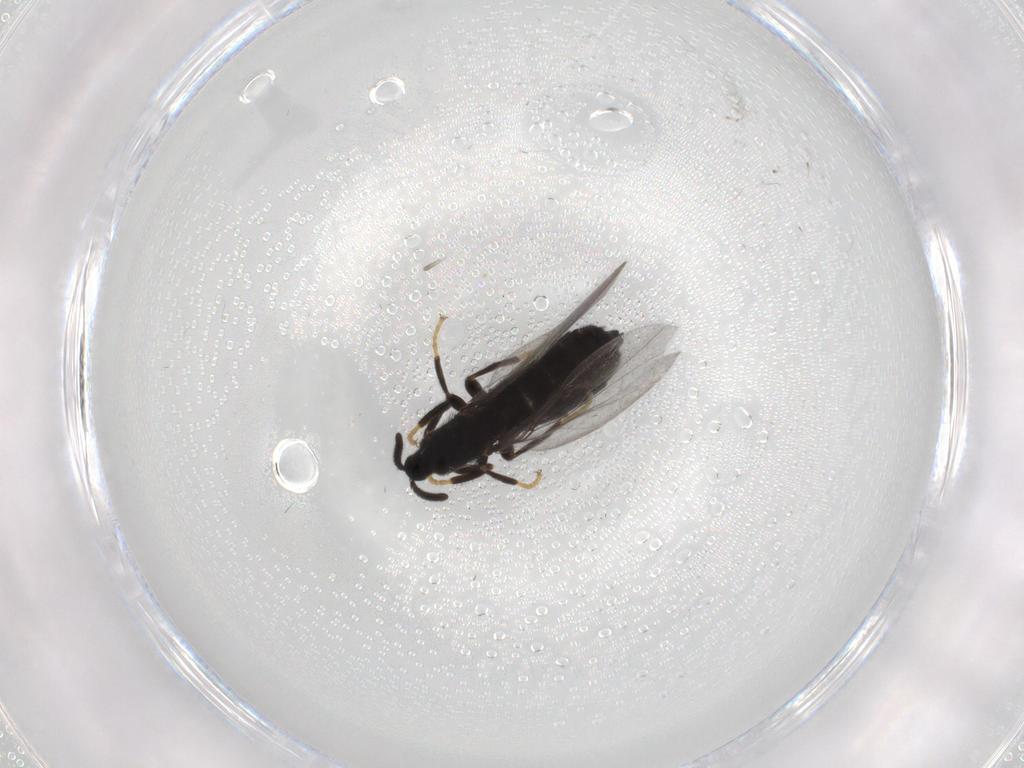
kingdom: Animalia
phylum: Arthropoda
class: Insecta
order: Diptera
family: Scatopsidae
